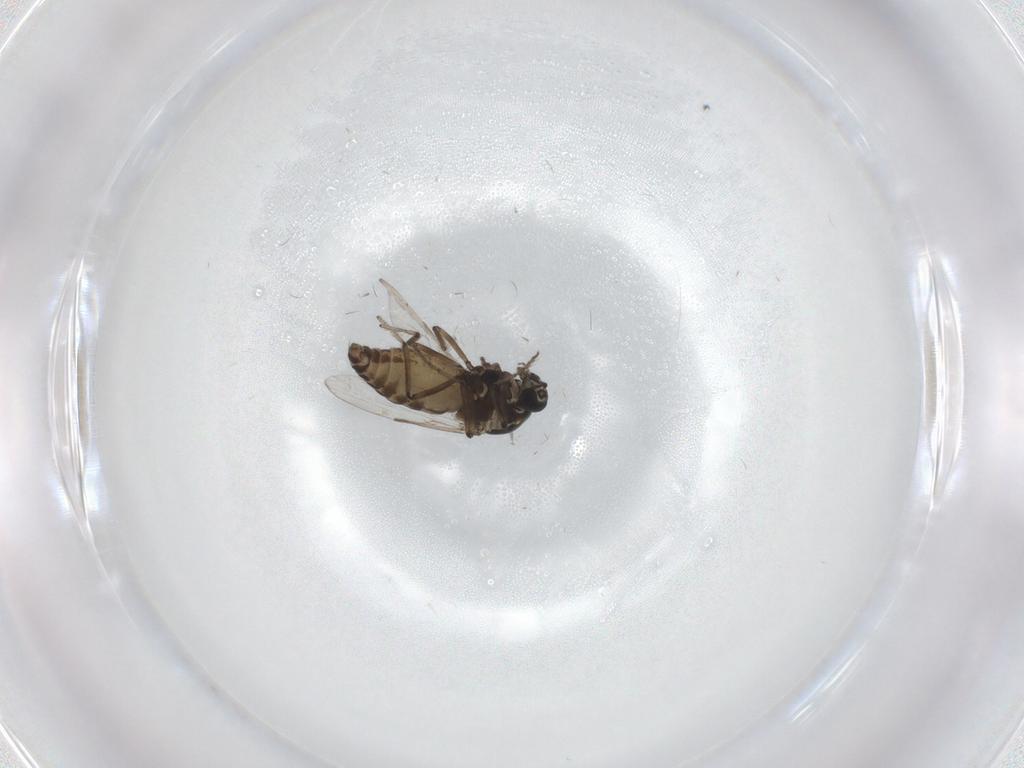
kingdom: Animalia
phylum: Arthropoda
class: Insecta
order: Diptera
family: Ceratopogonidae
